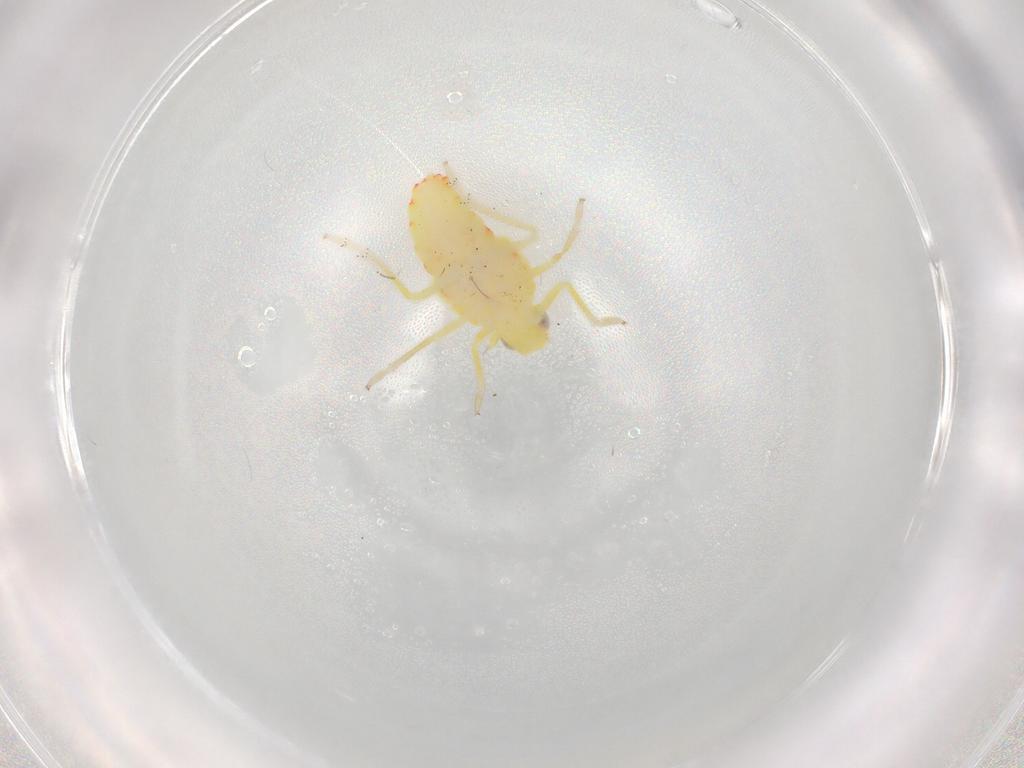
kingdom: Animalia
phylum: Arthropoda
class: Insecta
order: Hemiptera
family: Tropiduchidae
